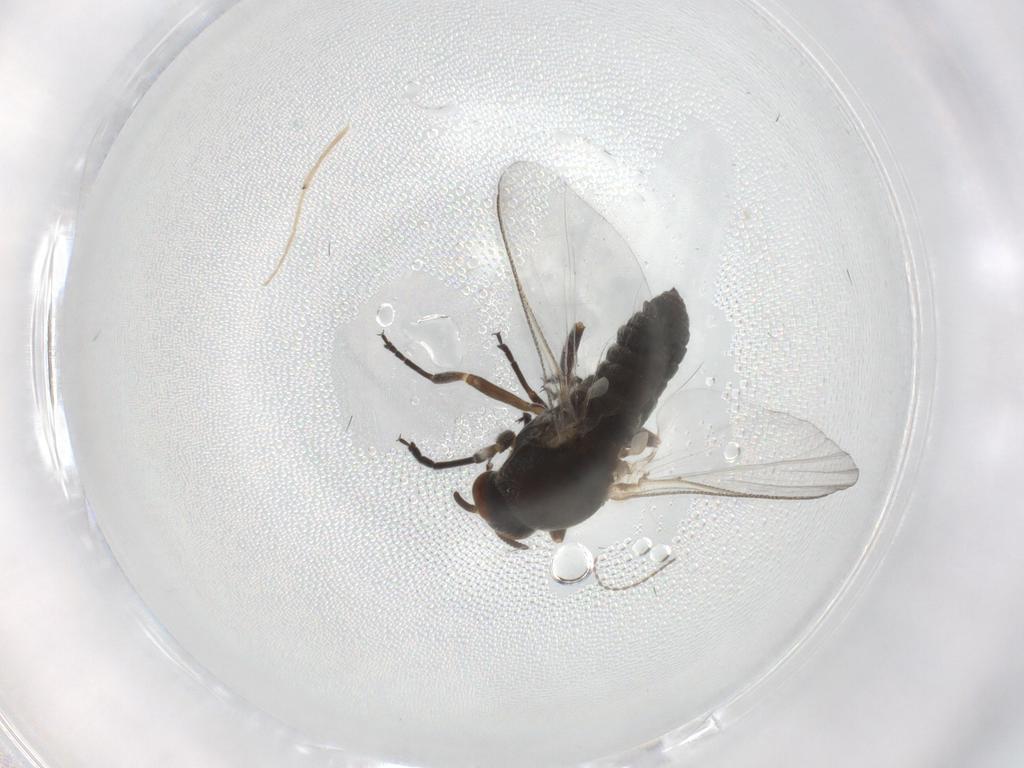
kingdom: Animalia
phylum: Arthropoda
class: Insecta
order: Diptera
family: Simuliidae
